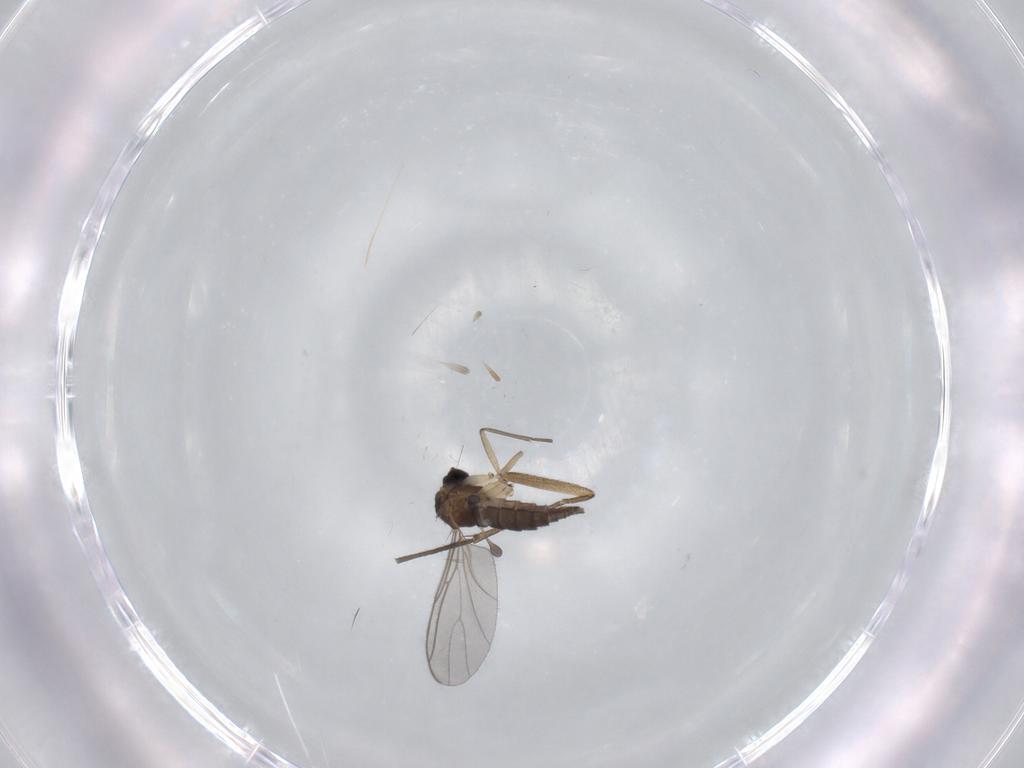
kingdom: Animalia
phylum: Arthropoda
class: Insecta
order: Diptera
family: Sciaridae
